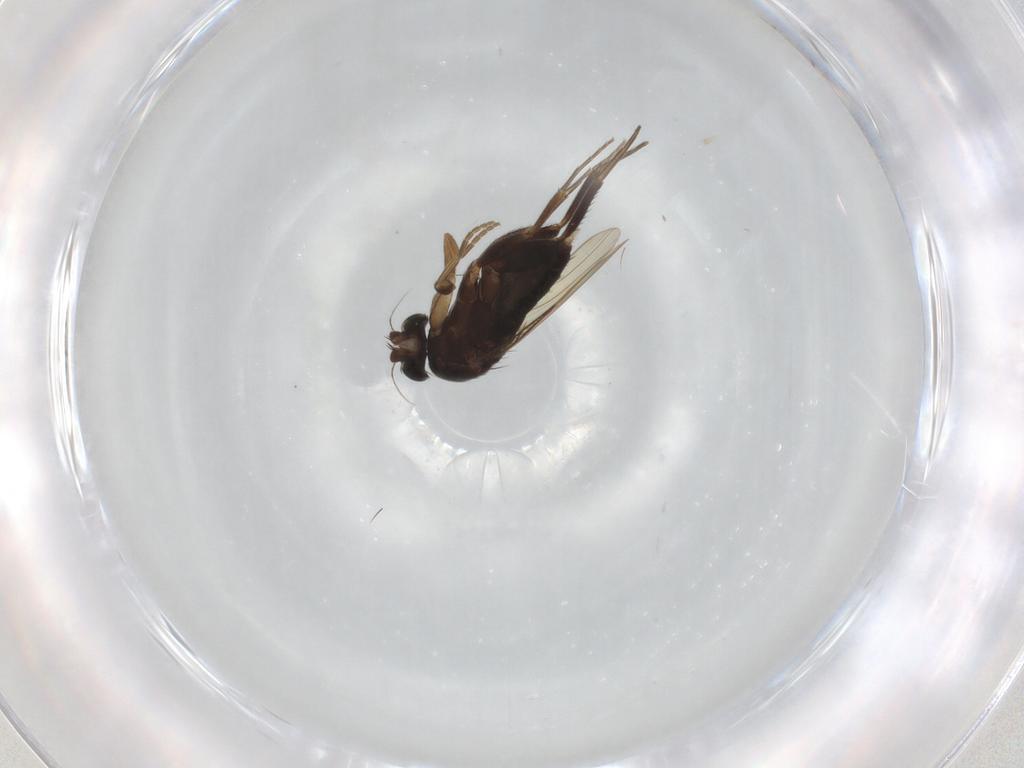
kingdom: Animalia
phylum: Arthropoda
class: Insecta
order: Diptera
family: Phoridae
